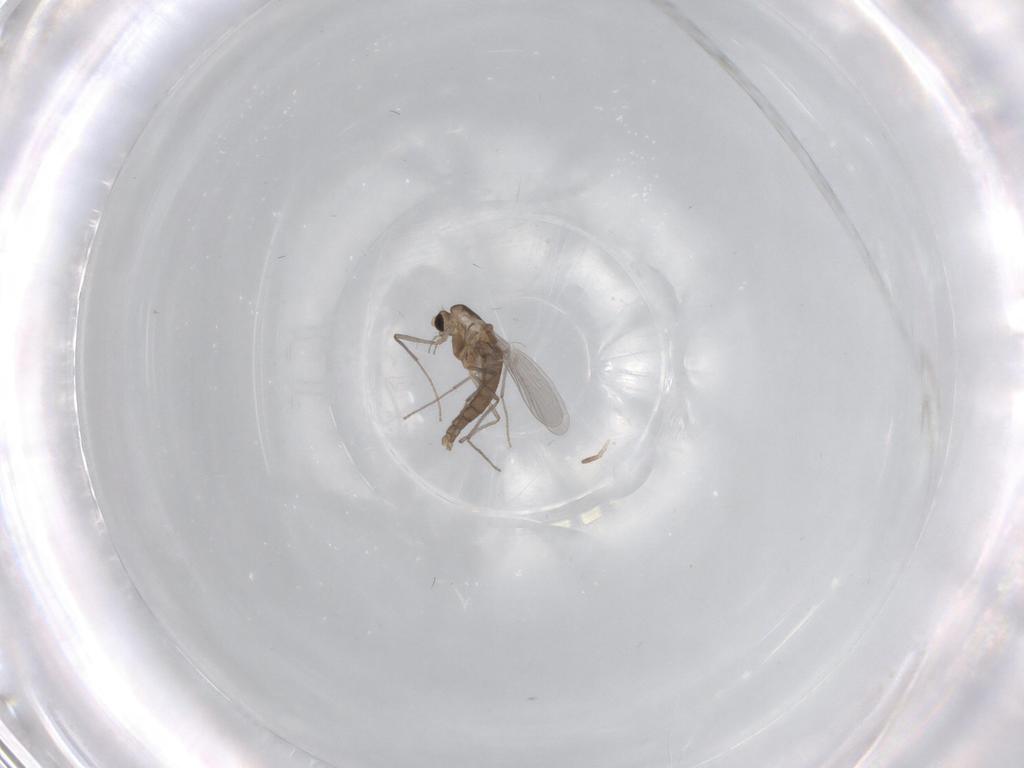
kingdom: Animalia
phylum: Arthropoda
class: Insecta
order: Diptera
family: Chironomidae
